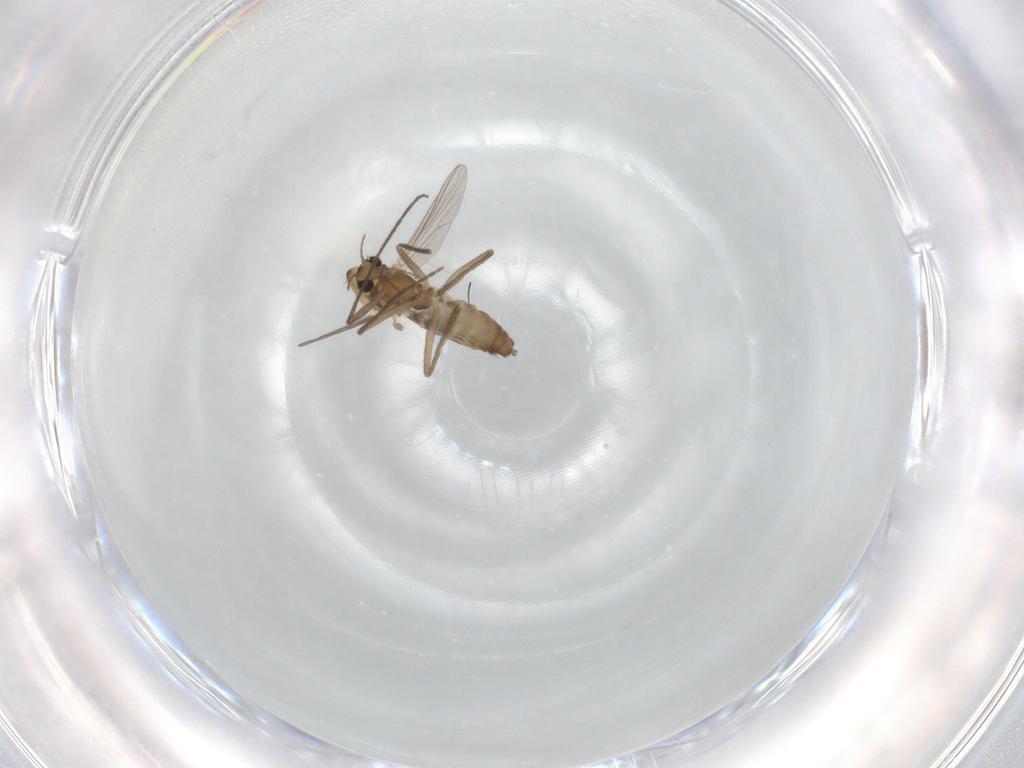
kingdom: Animalia
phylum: Arthropoda
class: Insecta
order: Diptera
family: Chironomidae
